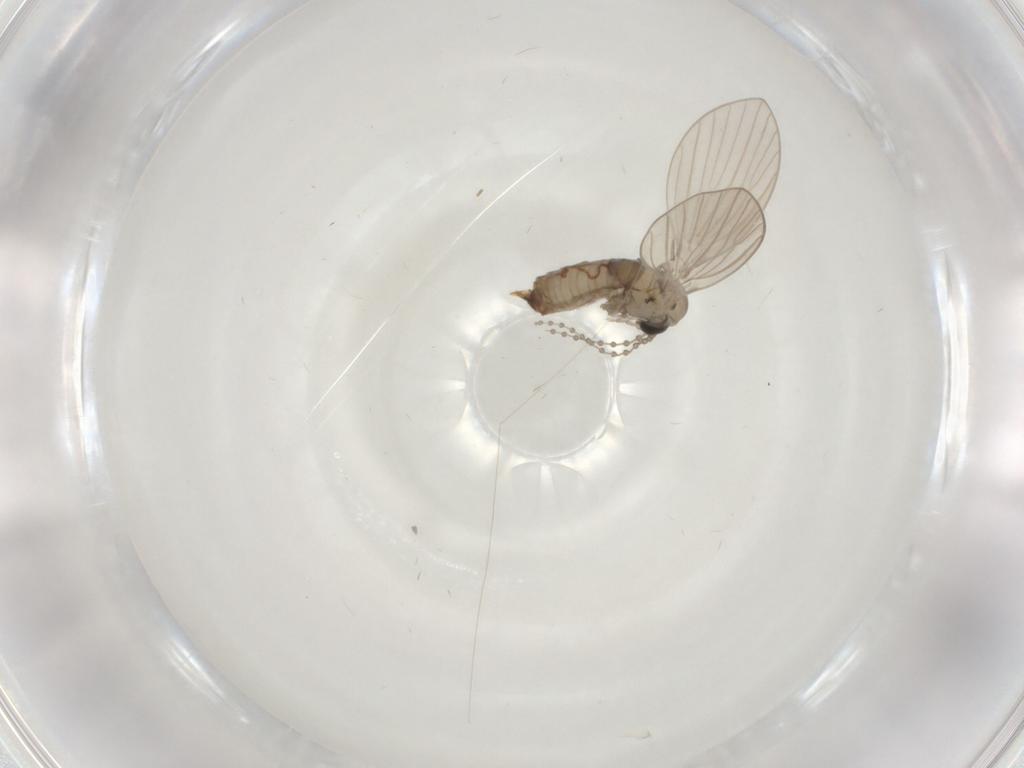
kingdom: Animalia
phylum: Arthropoda
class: Insecta
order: Diptera
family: Psychodidae
